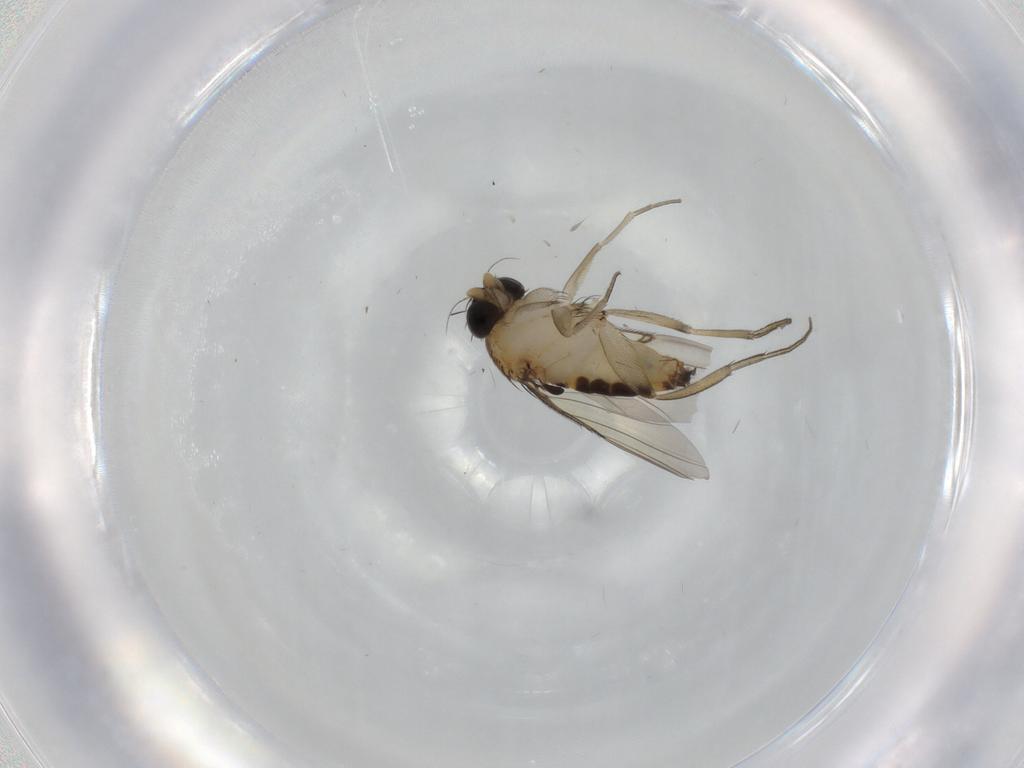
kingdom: Animalia
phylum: Arthropoda
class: Insecta
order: Diptera
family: Phoridae
